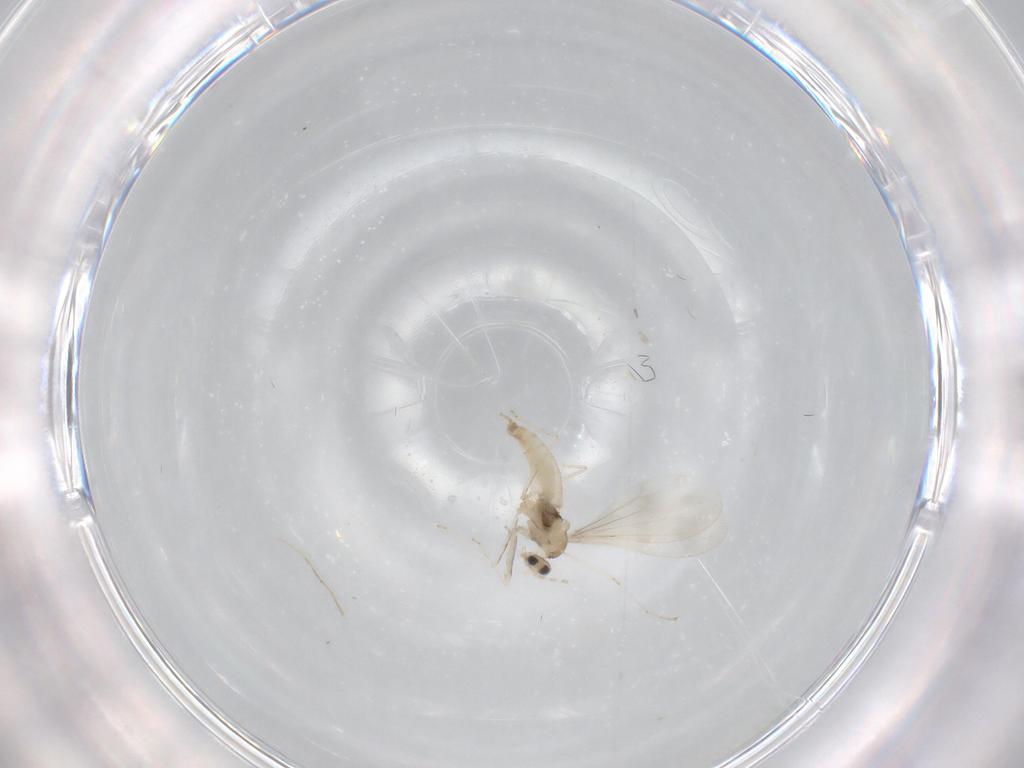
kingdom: Animalia
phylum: Arthropoda
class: Insecta
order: Diptera
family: Cecidomyiidae
